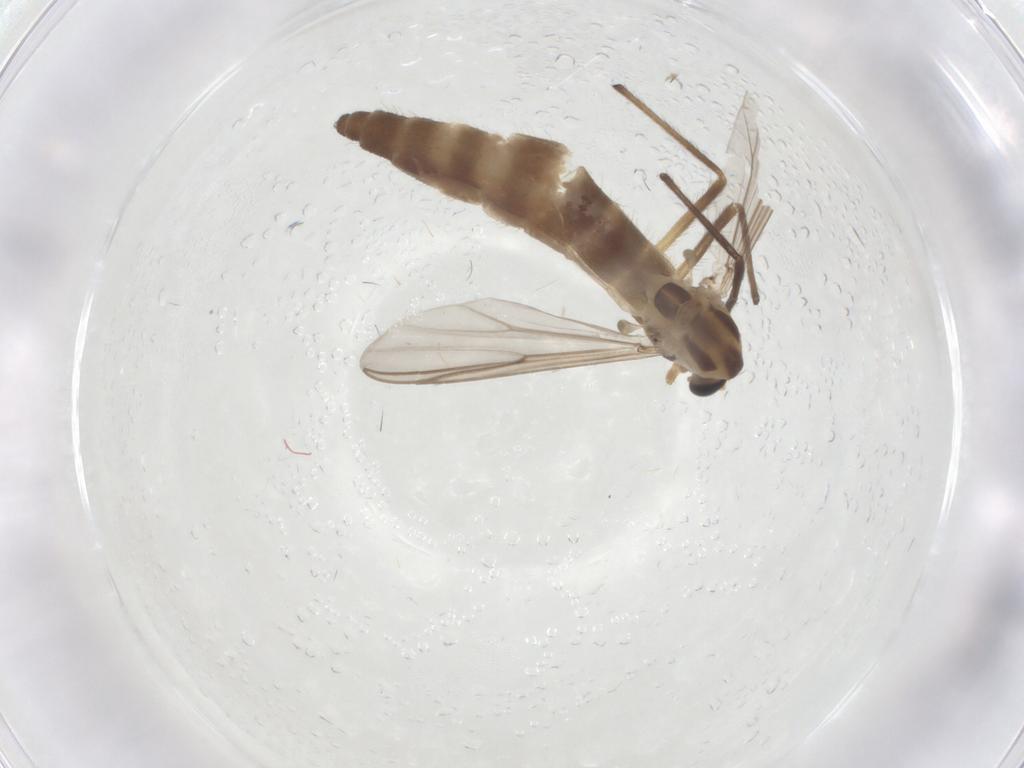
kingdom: Animalia
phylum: Arthropoda
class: Insecta
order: Diptera
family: Chironomidae
